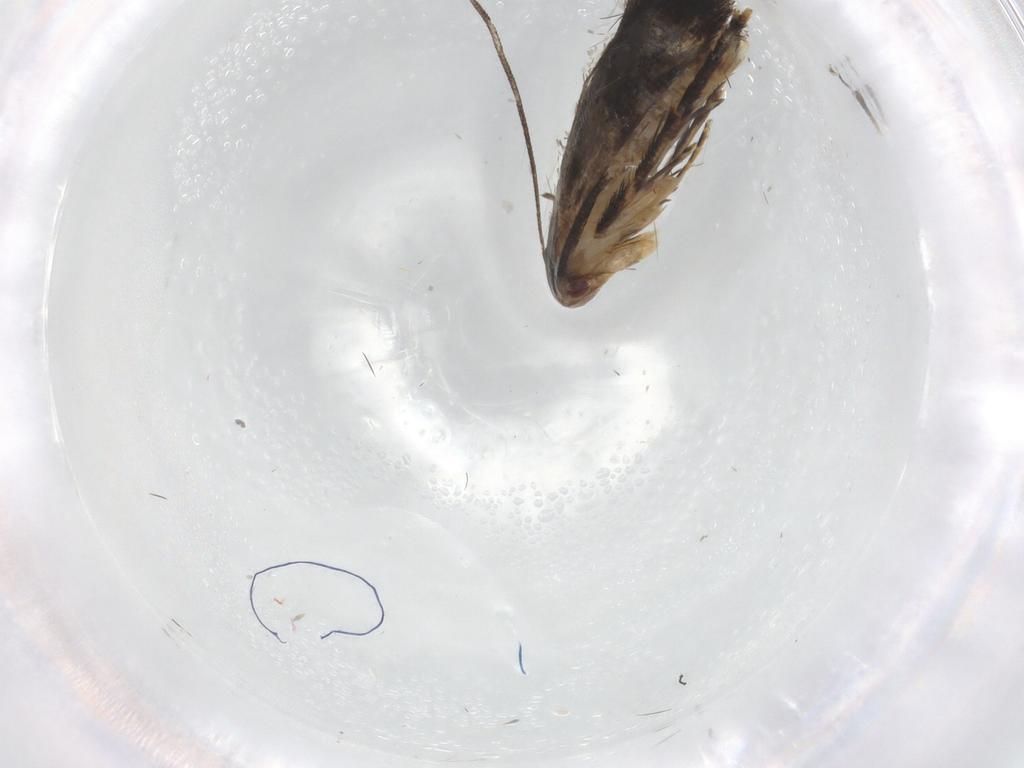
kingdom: Animalia
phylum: Arthropoda
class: Insecta
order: Lepidoptera
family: Momphidae
